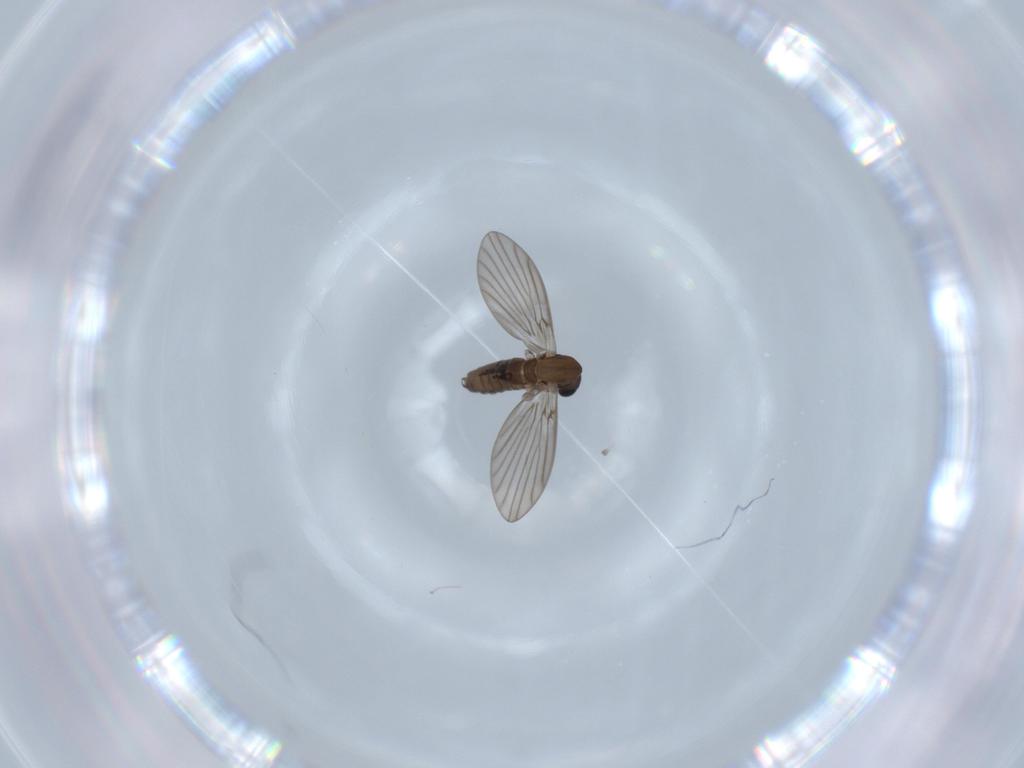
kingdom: Animalia
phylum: Arthropoda
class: Insecta
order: Diptera
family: Psychodidae
